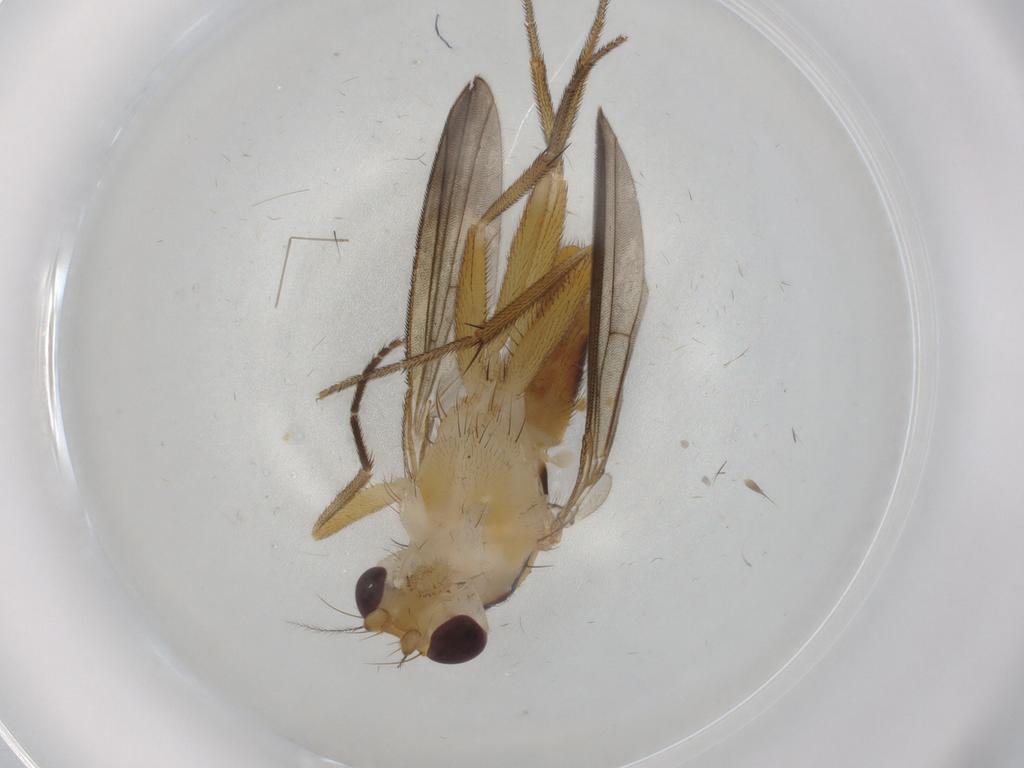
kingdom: Animalia
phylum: Arthropoda
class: Insecta
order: Diptera
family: Clusiidae
